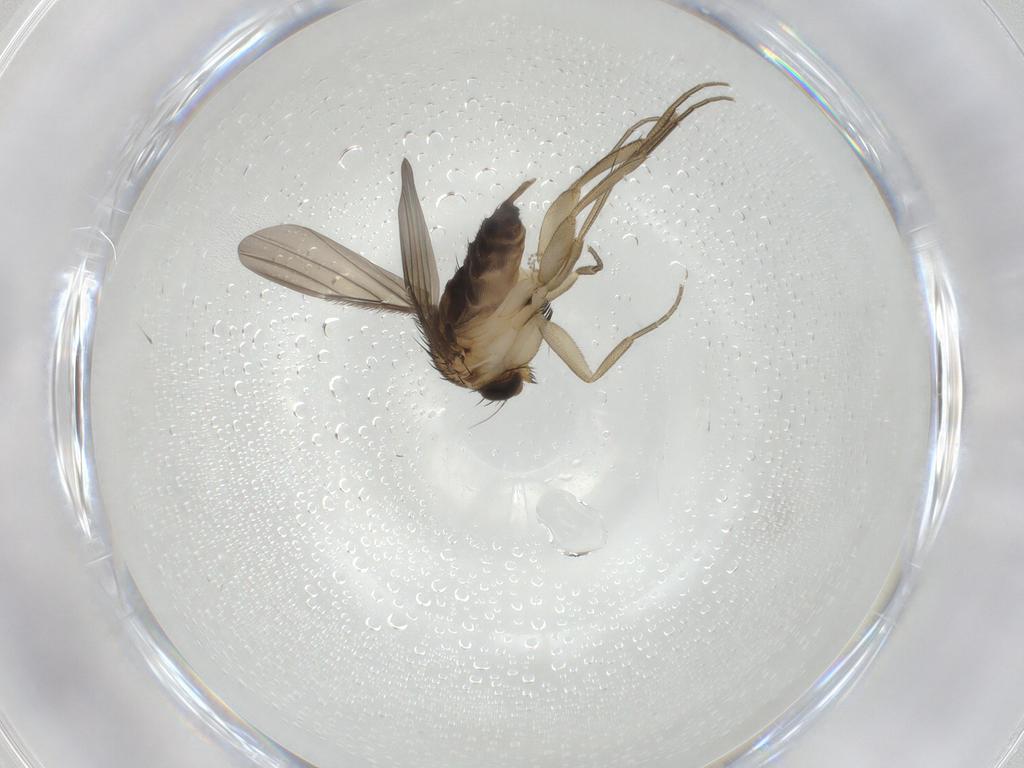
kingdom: Animalia
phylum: Arthropoda
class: Insecta
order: Diptera
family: Phoridae
